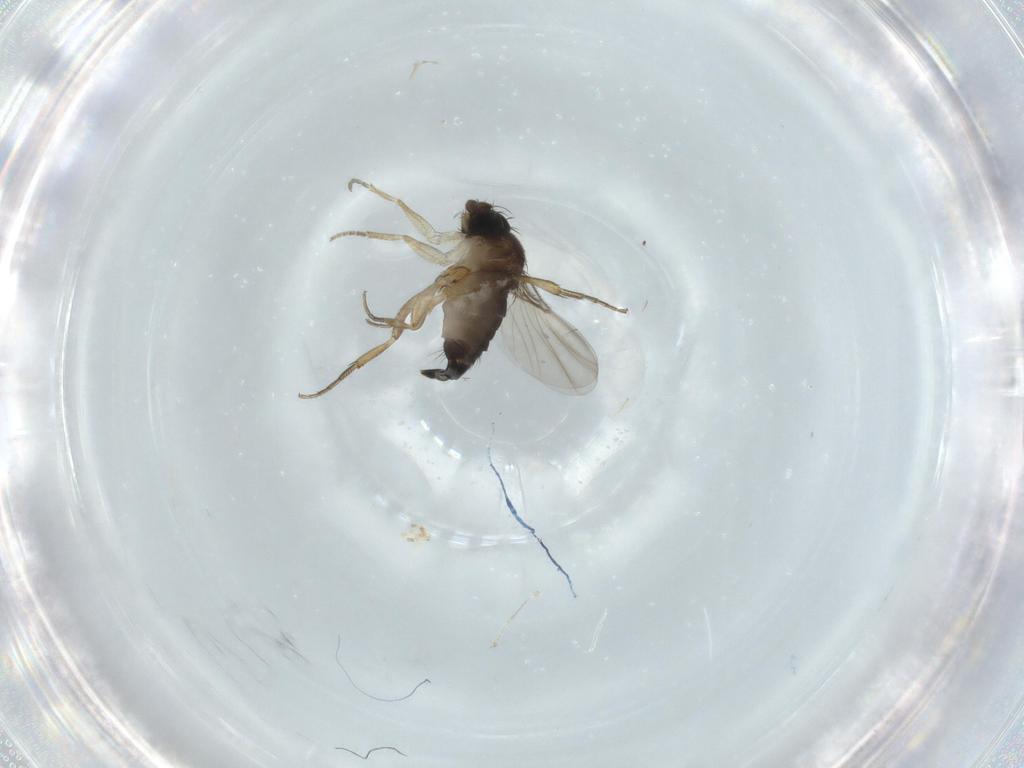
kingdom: Animalia
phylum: Arthropoda
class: Insecta
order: Diptera
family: Phoridae
